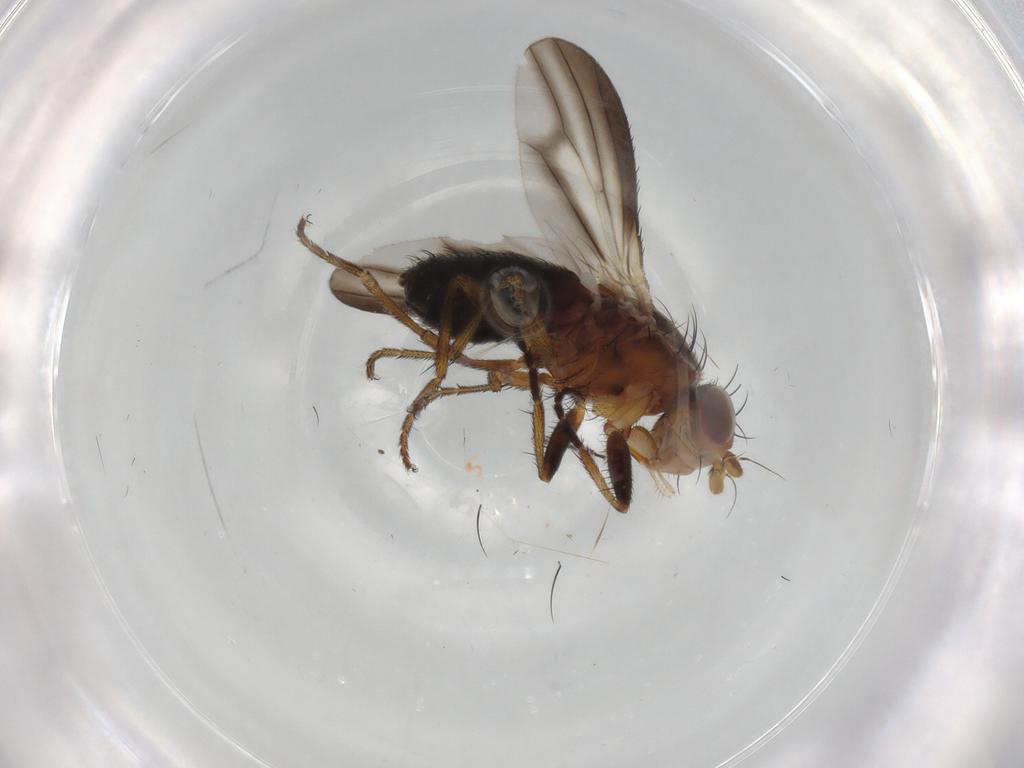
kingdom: Animalia
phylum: Arthropoda
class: Insecta
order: Diptera
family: Heleomyzidae
